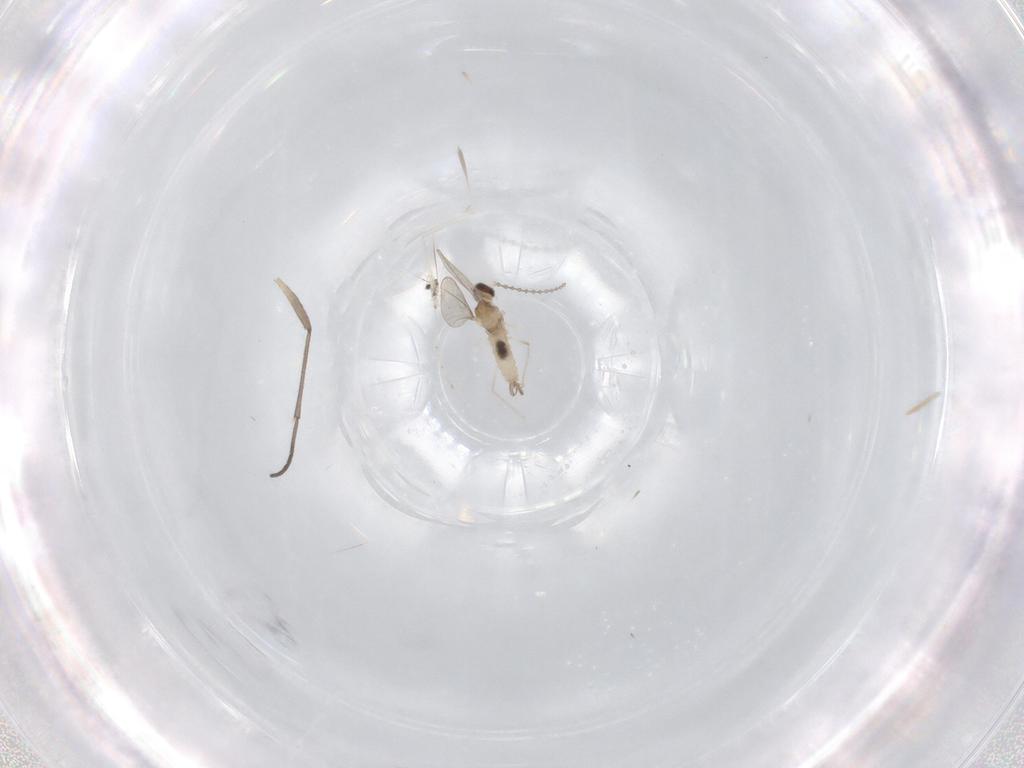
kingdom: Animalia
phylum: Arthropoda
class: Insecta
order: Diptera
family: Cecidomyiidae
